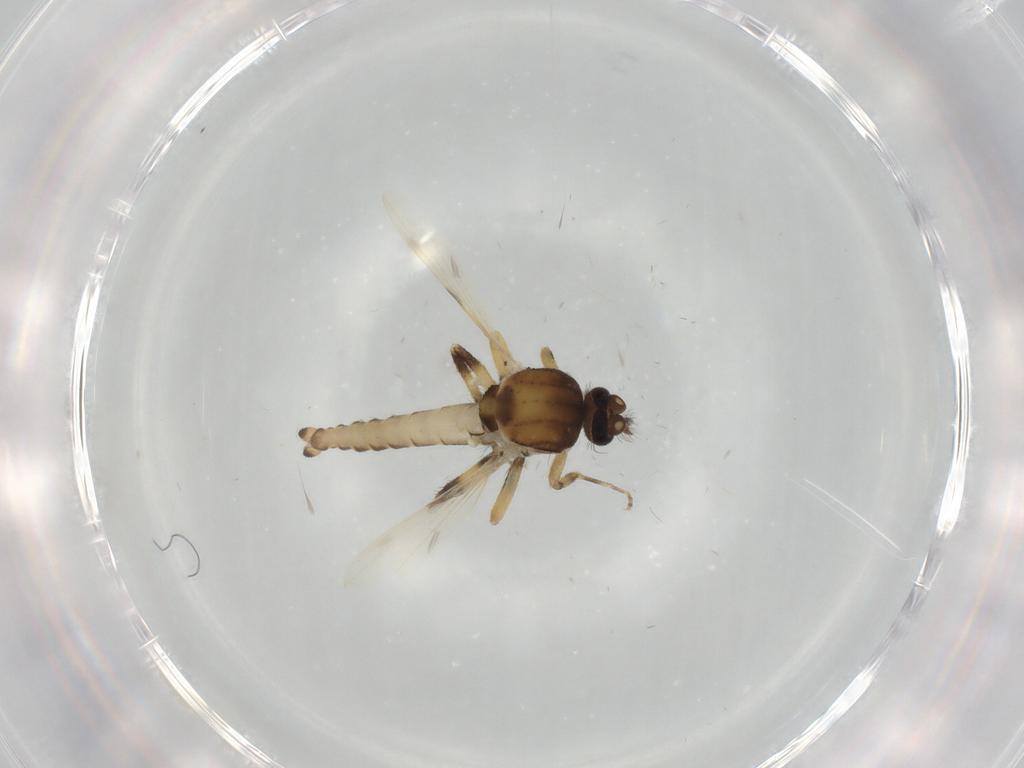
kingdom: Animalia
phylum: Arthropoda
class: Insecta
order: Diptera
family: Ceratopogonidae
